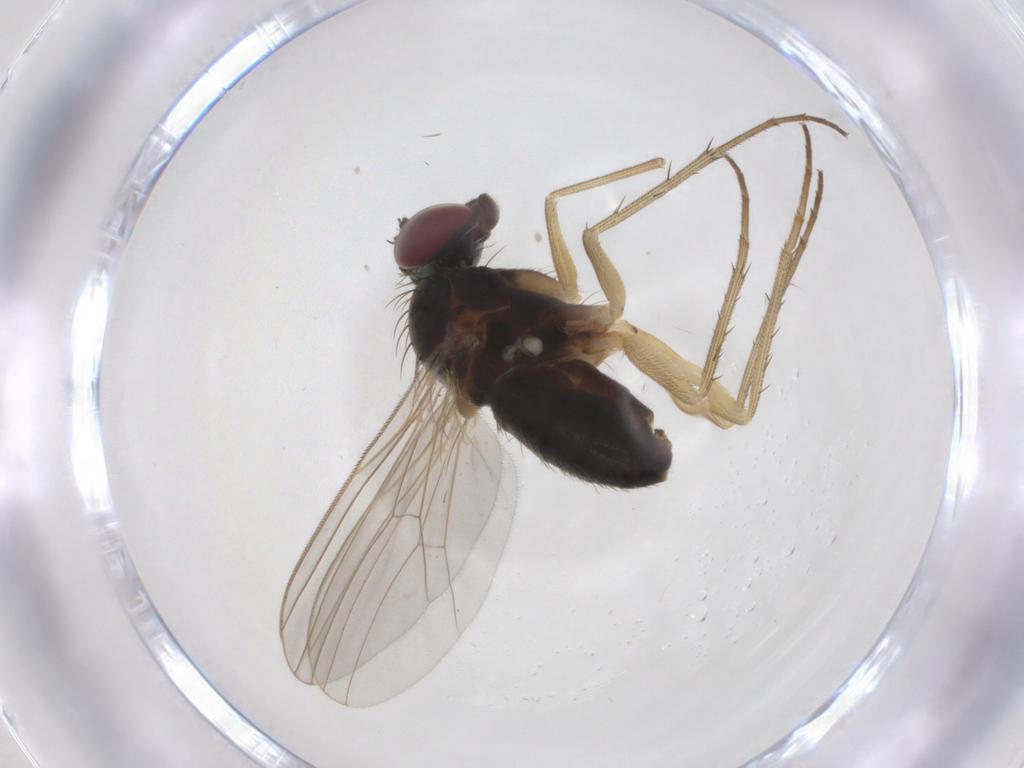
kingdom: Animalia
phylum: Arthropoda
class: Insecta
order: Diptera
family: Dolichopodidae
